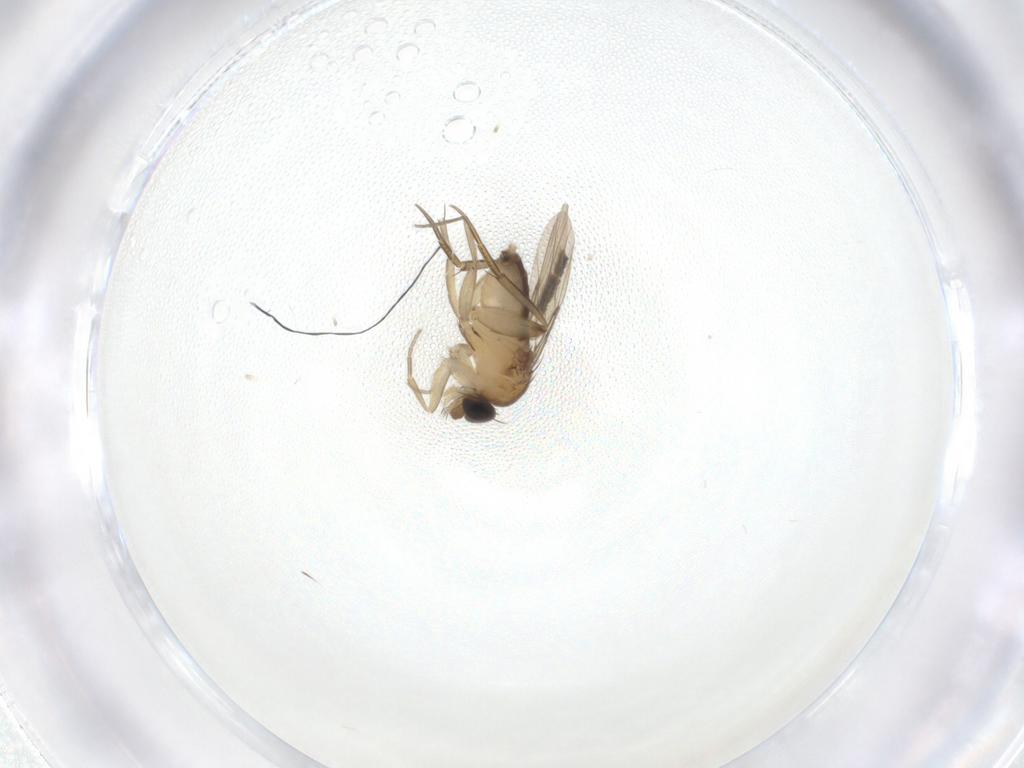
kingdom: Animalia
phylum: Arthropoda
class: Insecta
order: Diptera
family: Phoridae
